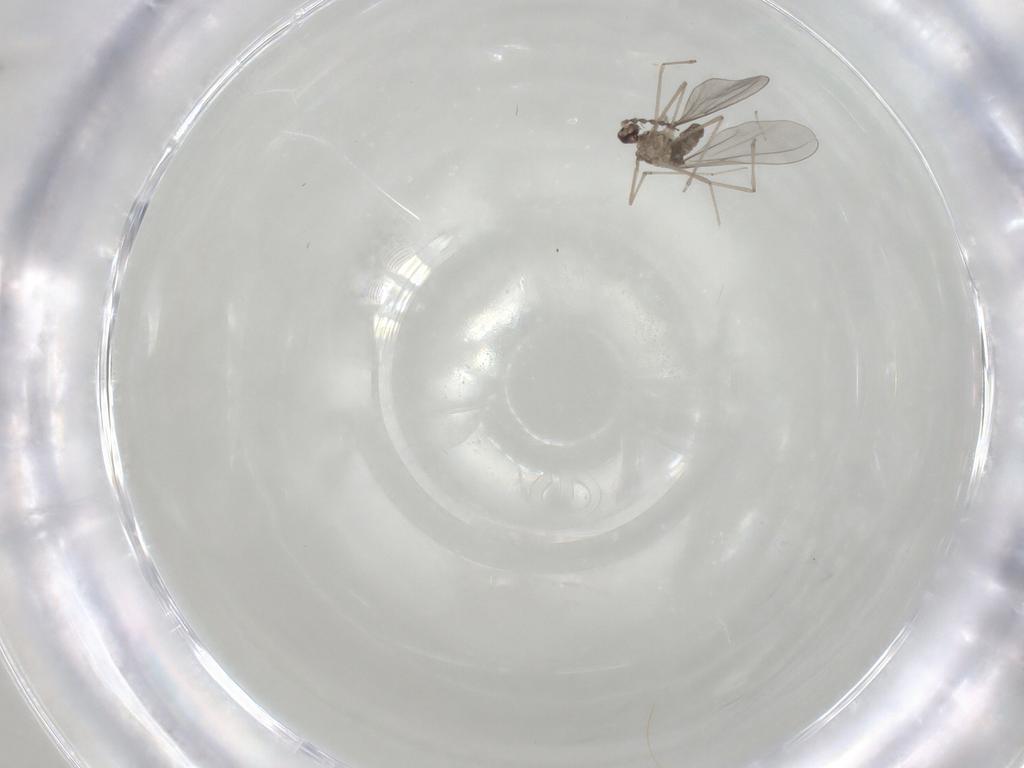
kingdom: Animalia
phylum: Arthropoda
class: Insecta
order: Diptera
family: Cecidomyiidae
